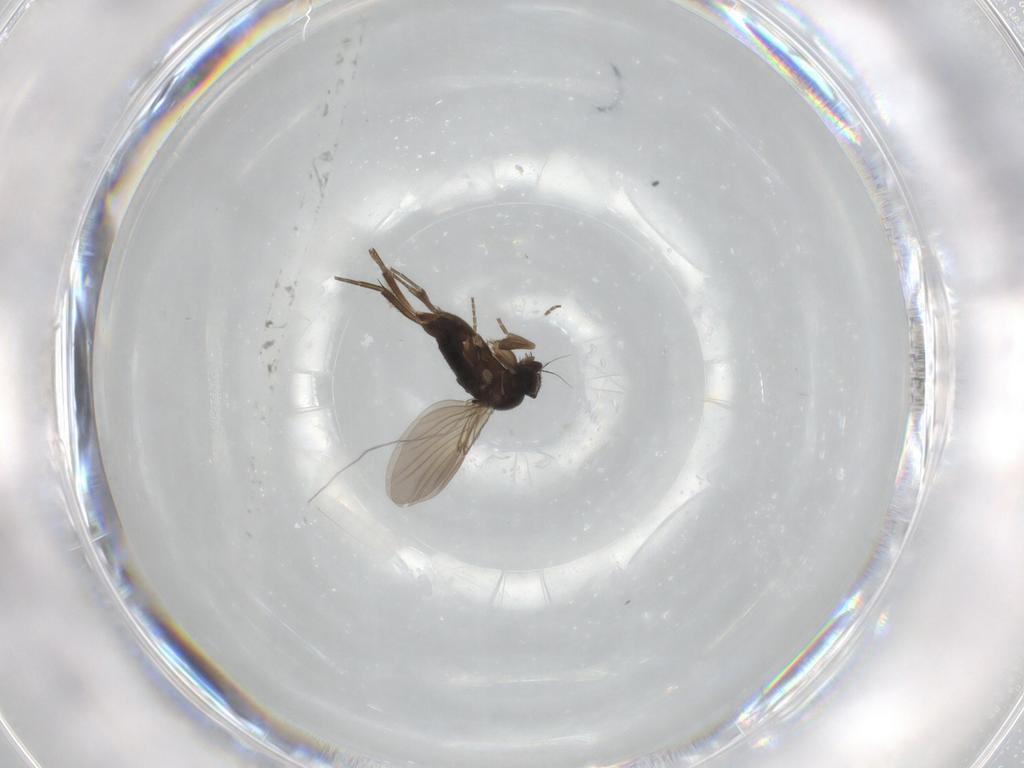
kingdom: Animalia
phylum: Arthropoda
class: Insecta
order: Diptera
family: Phoridae
